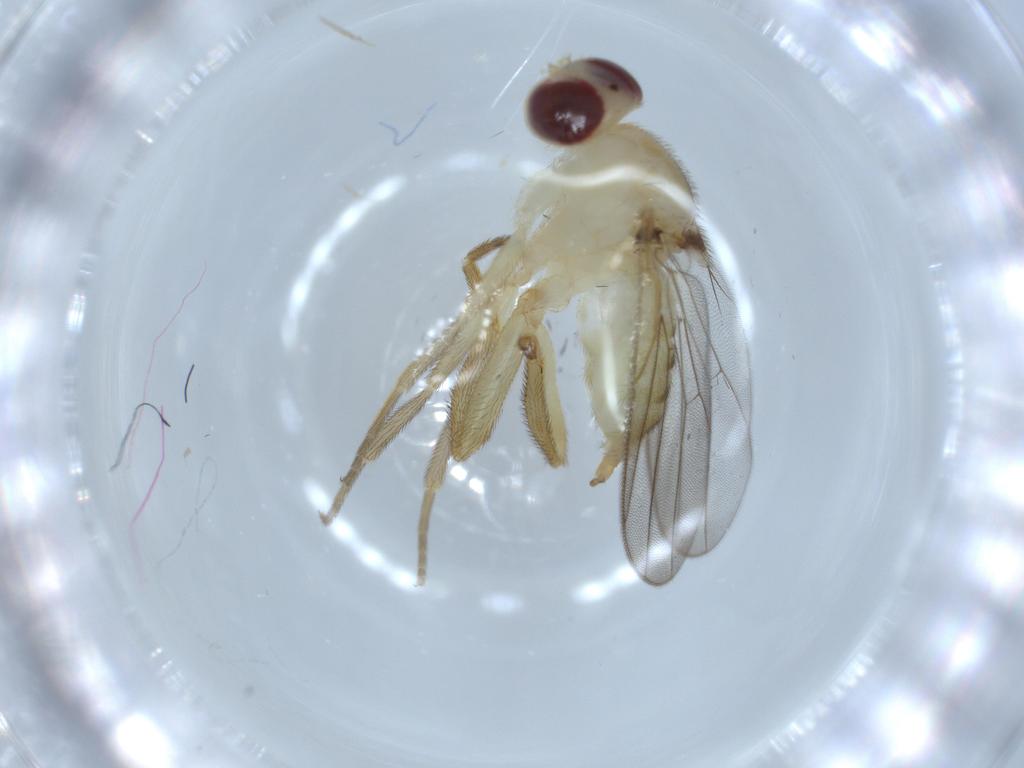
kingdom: Animalia
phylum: Arthropoda
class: Insecta
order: Diptera
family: Chloropidae
